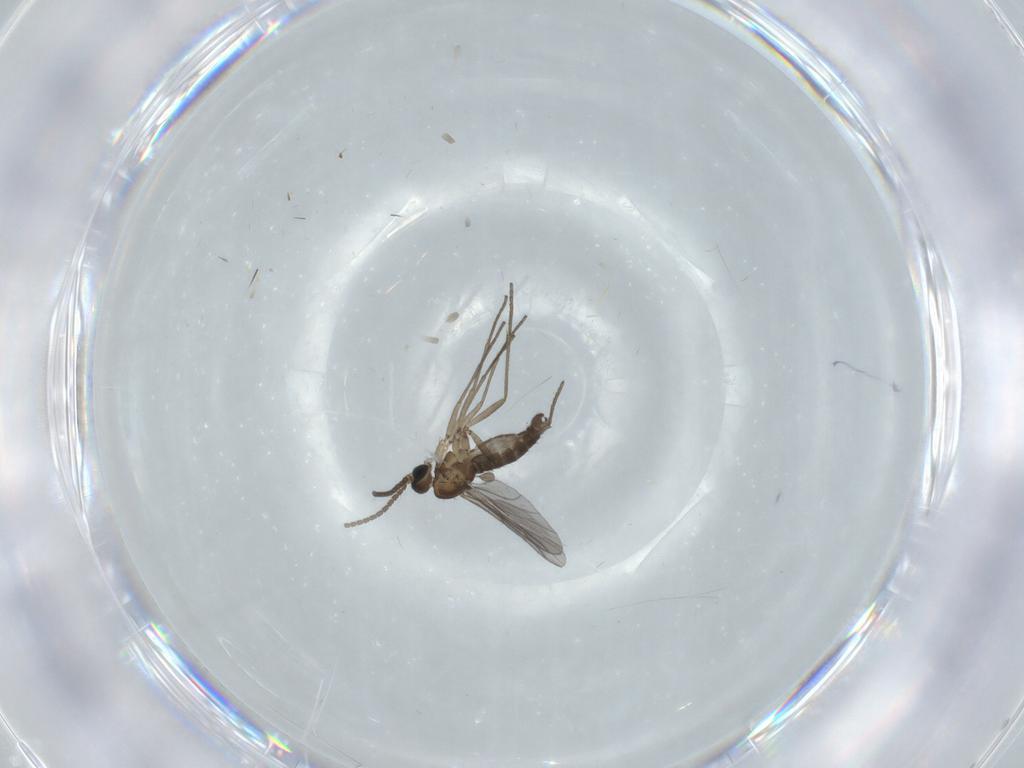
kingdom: Animalia
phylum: Arthropoda
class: Insecta
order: Diptera
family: Sciaridae
